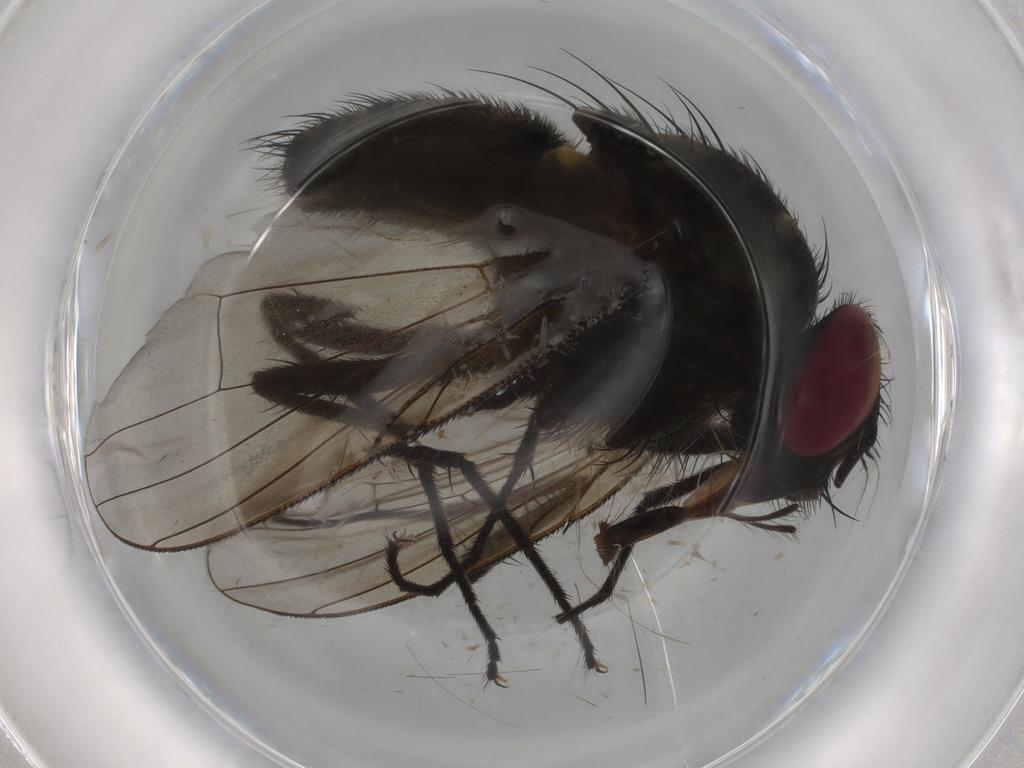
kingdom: Animalia
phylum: Arthropoda
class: Insecta
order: Diptera
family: Muscidae
